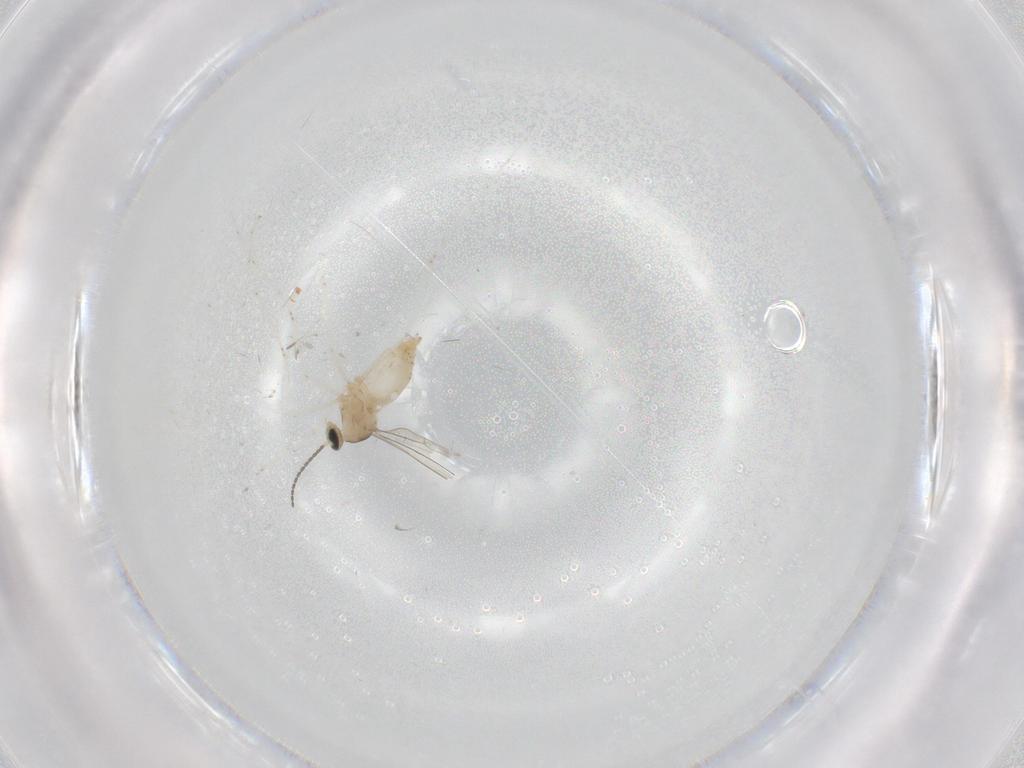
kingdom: Animalia
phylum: Arthropoda
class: Insecta
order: Diptera
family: Cecidomyiidae
